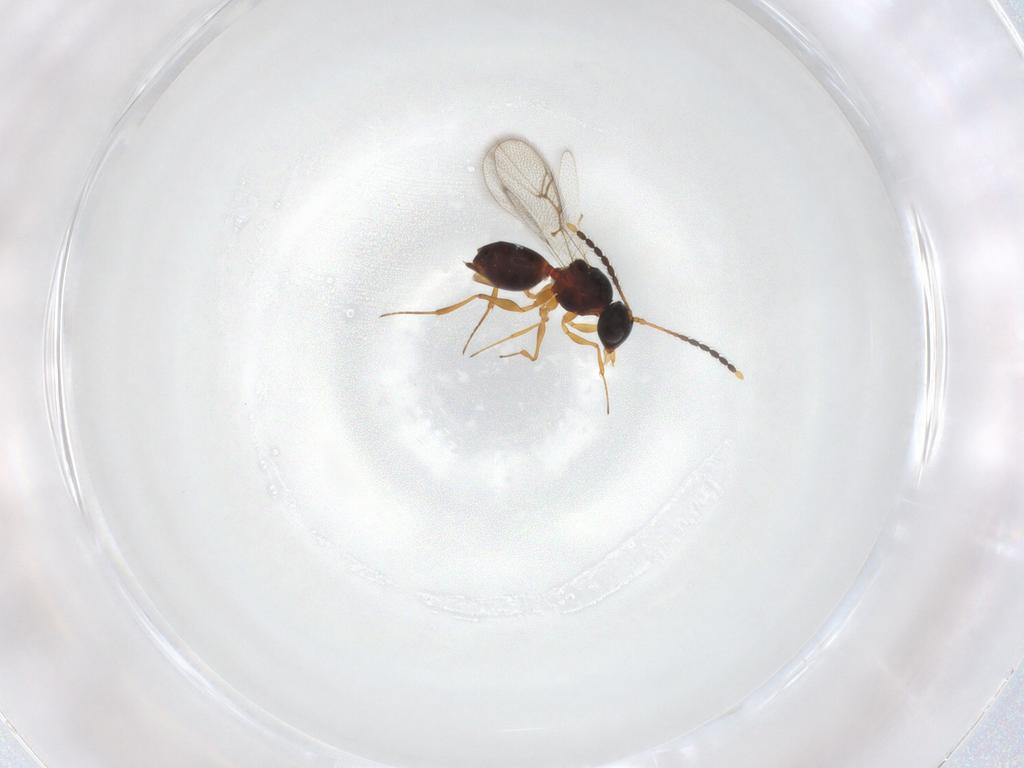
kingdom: Animalia
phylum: Arthropoda
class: Insecta
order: Hymenoptera
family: Figitidae
